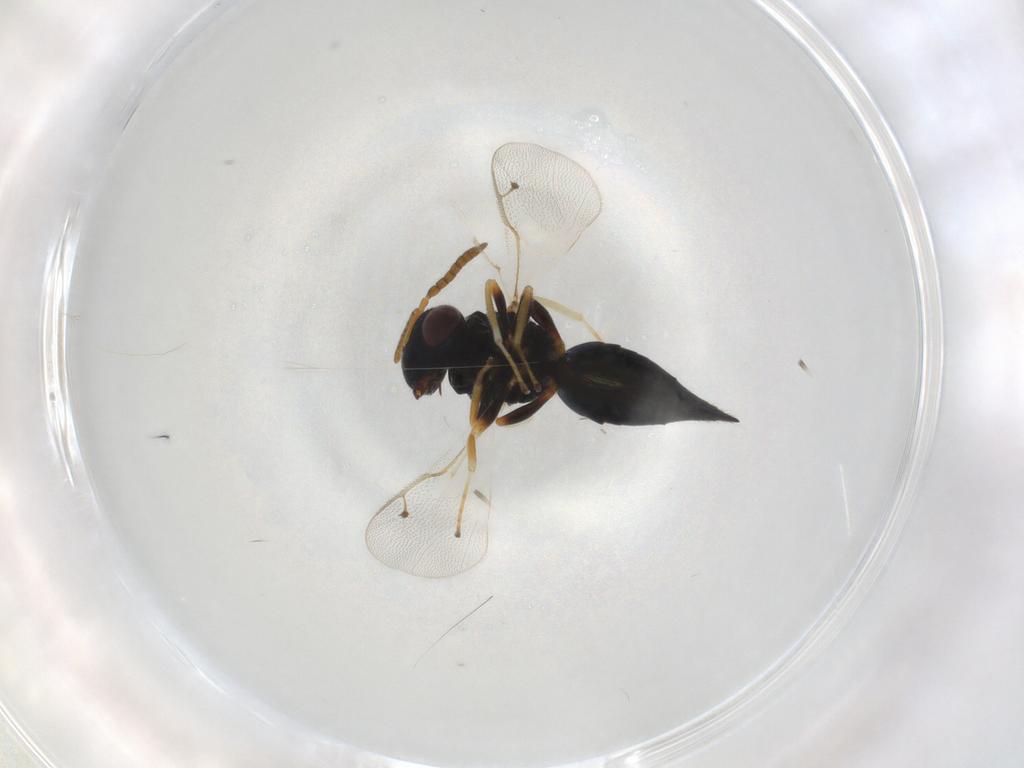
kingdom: Animalia
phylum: Arthropoda
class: Insecta
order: Hymenoptera
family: Pteromalidae
